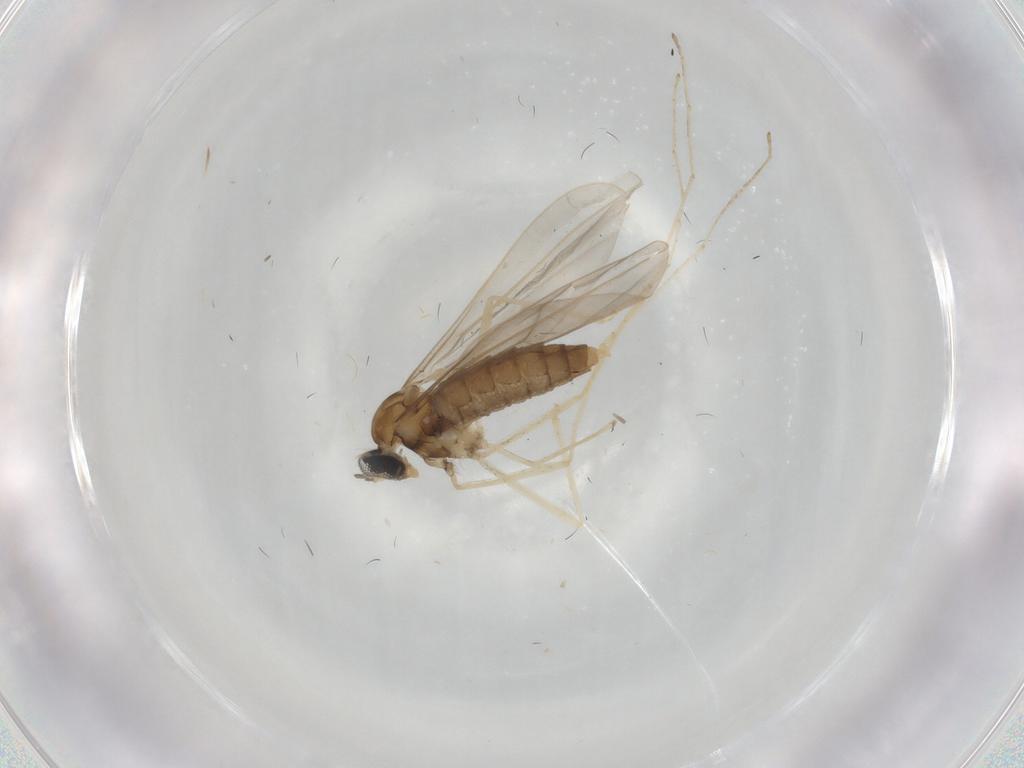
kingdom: Animalia
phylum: Arthropoda
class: Insecta
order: Diptera
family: Cecidomyiidae
